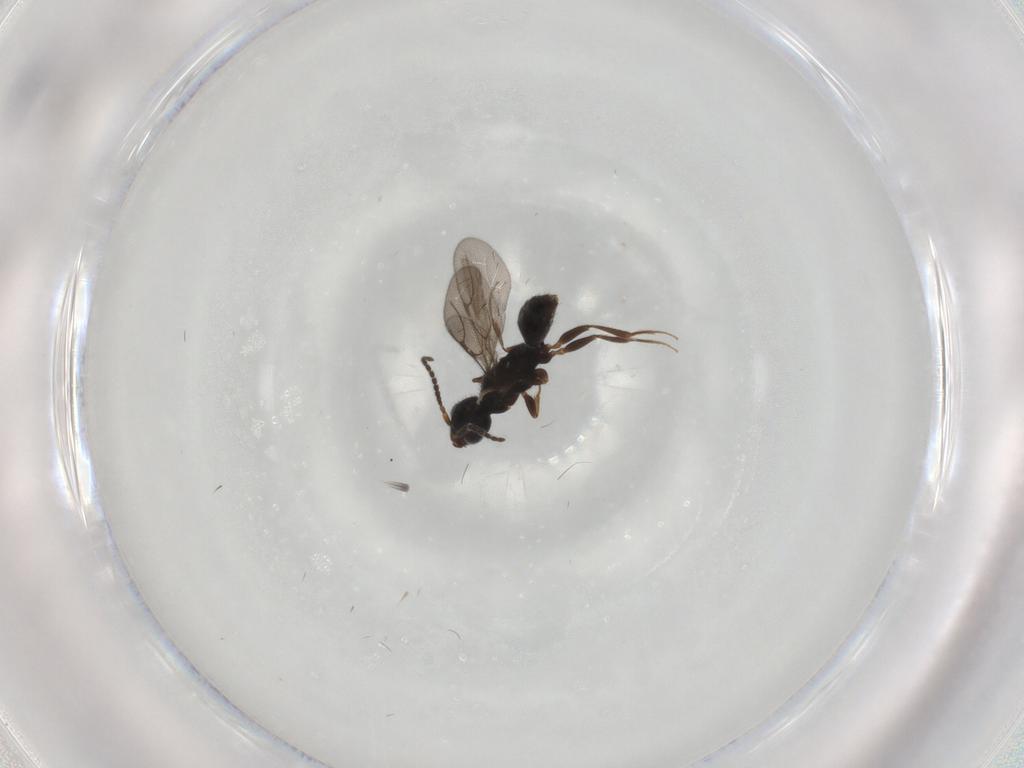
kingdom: Animalia
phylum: Arthropoda
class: Insecta
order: Hymenoptera
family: Bethylidae
